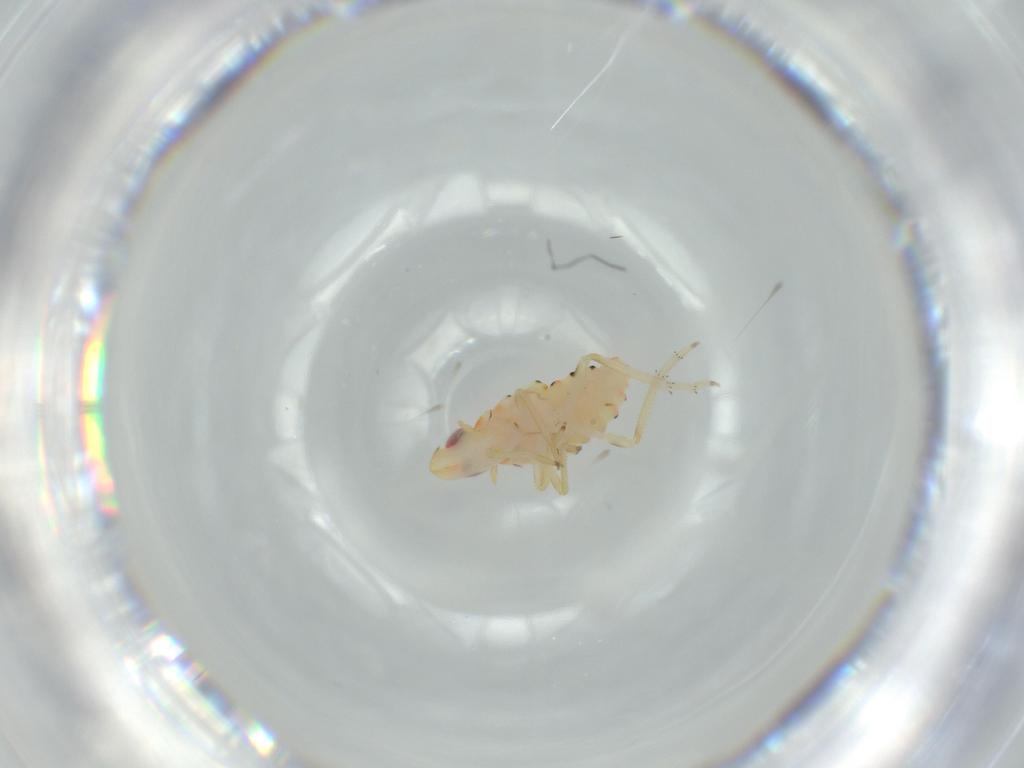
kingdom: Animalia
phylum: Arthropoda
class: Insecta
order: Hemiptera
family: Tropiduchidae
